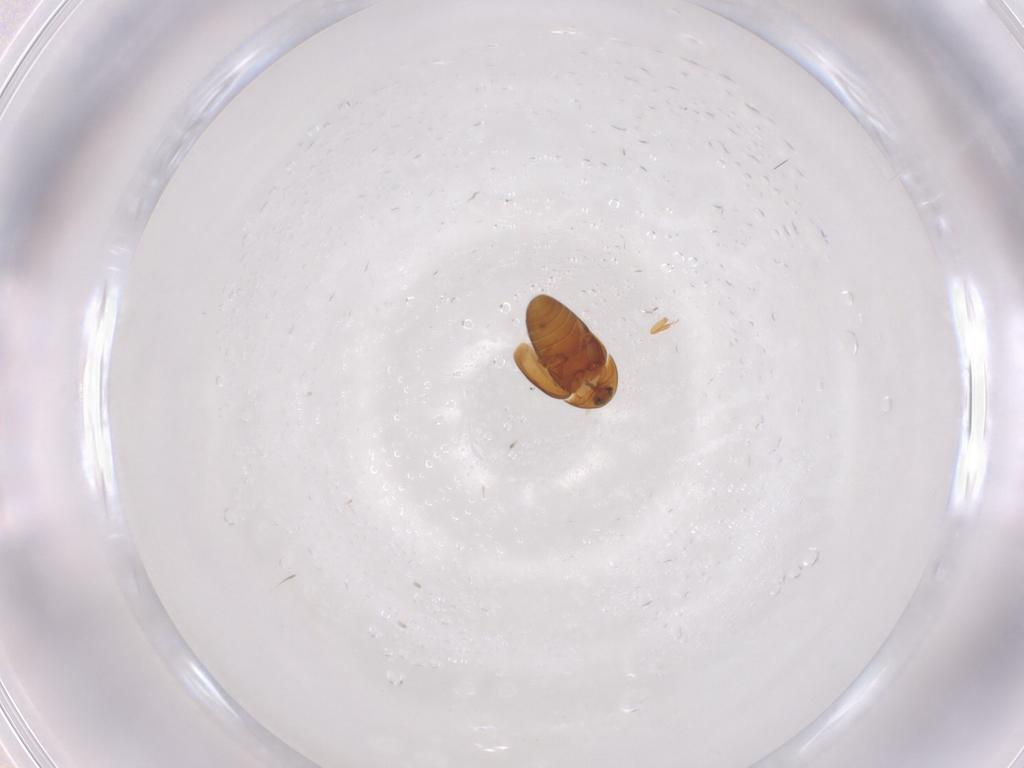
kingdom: Animalia
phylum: Arthropoda
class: Insecta
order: Coleoptera
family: Corylophidae
